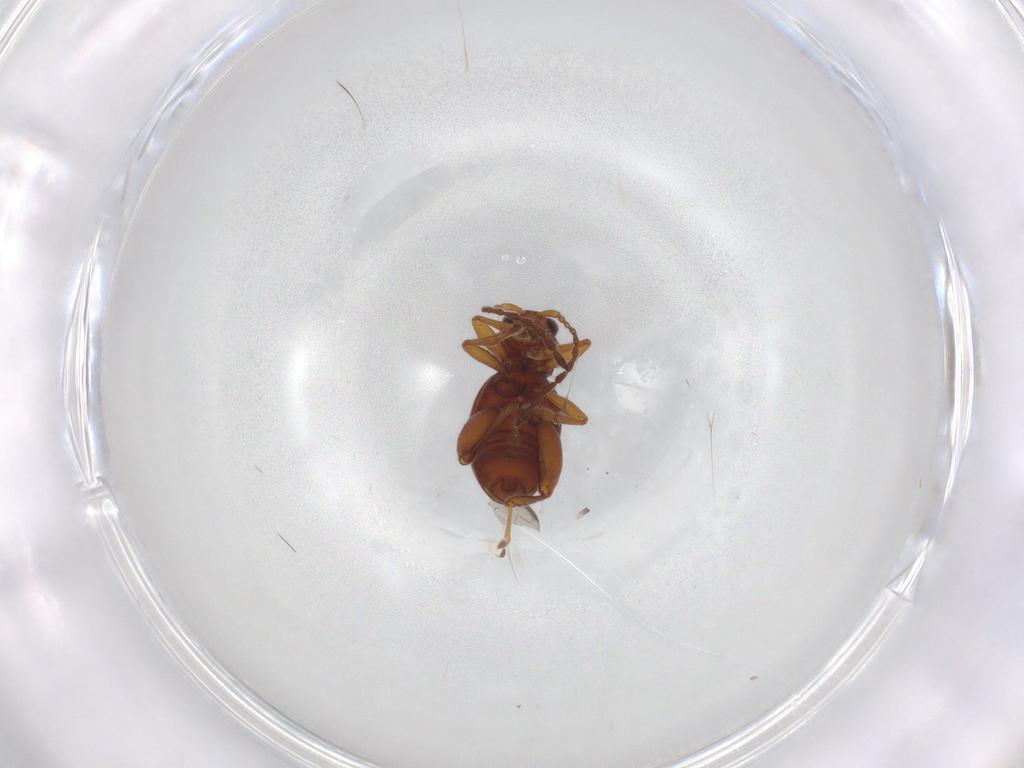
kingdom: Animalia
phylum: Arthropoda
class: Insecta
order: Coleoptera
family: Chrysomelidae
